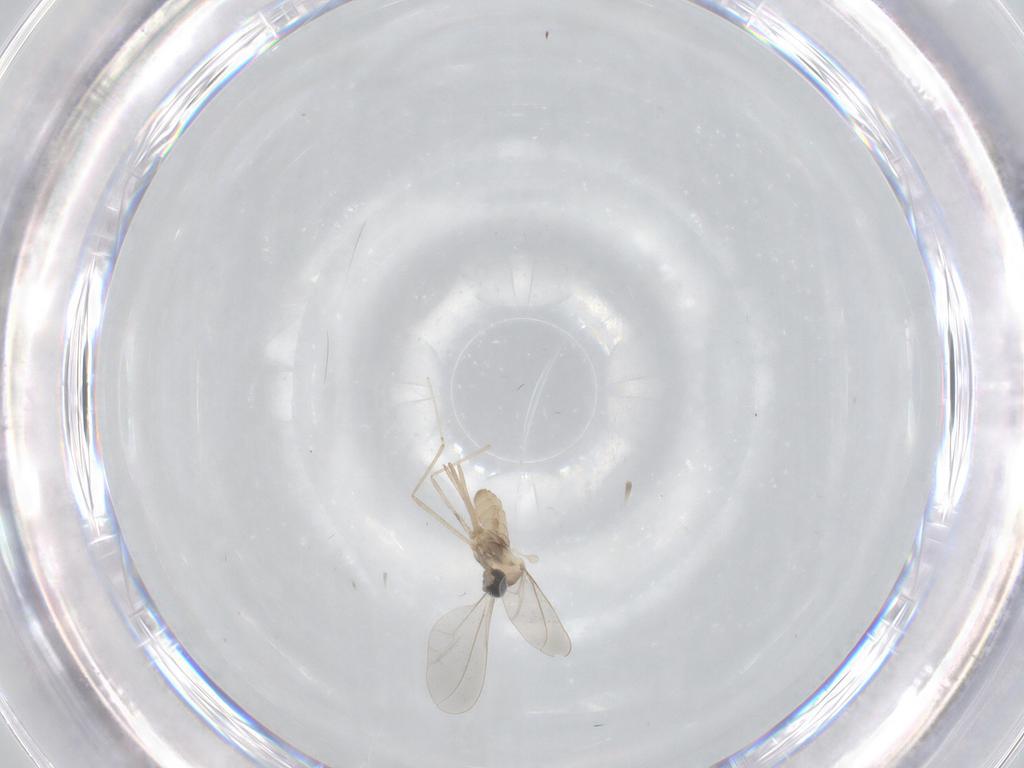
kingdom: Animalia
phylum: Arthropoda
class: Insecta
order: Diptera
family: Cecidomyiidae
